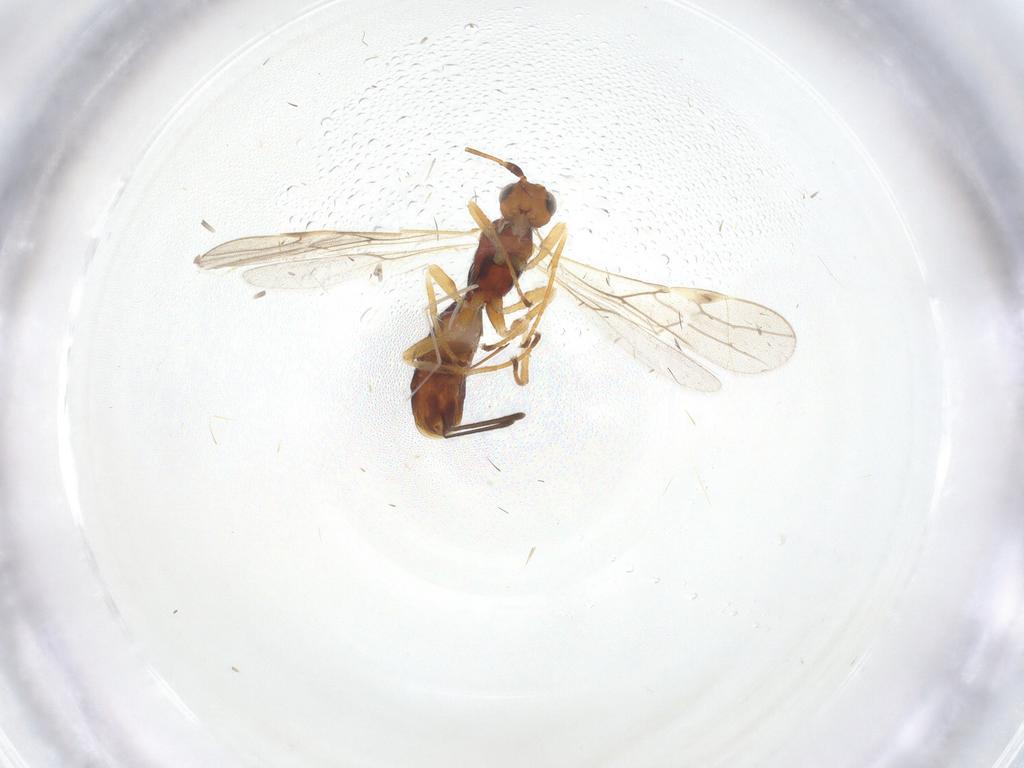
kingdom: Animalia
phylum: Arthropoda
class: Insecta
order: Hymenoptera
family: Braconidae
